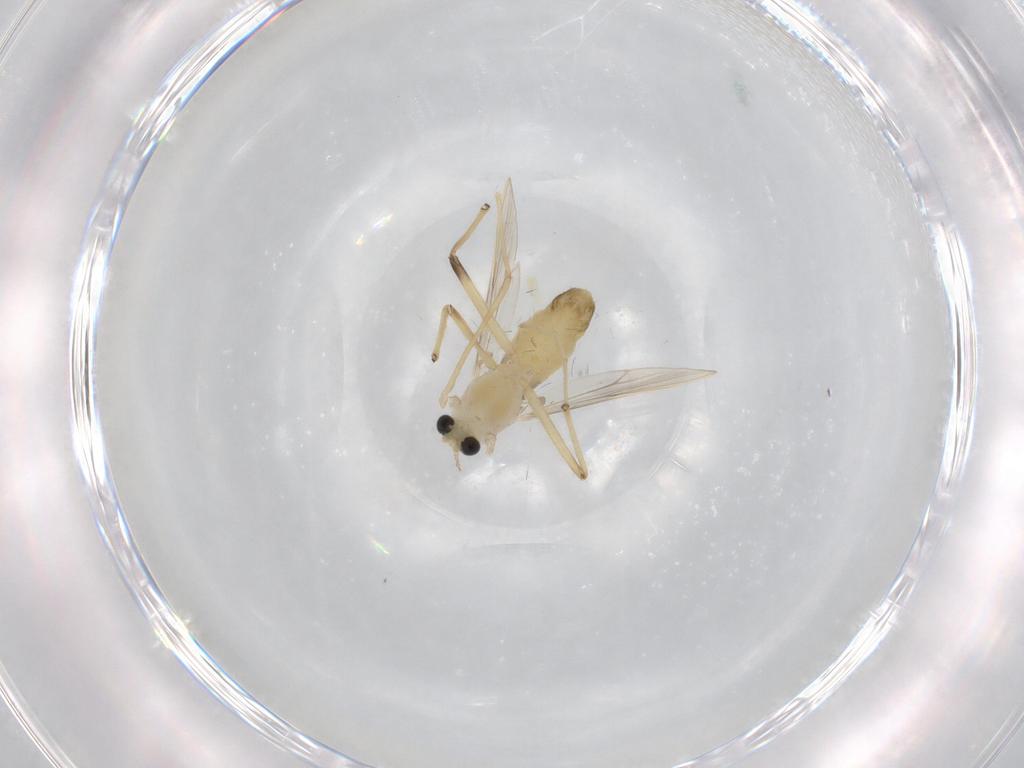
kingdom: Animalia
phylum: Arthropoda
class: Insecta
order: Diptera
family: Chironomidae
